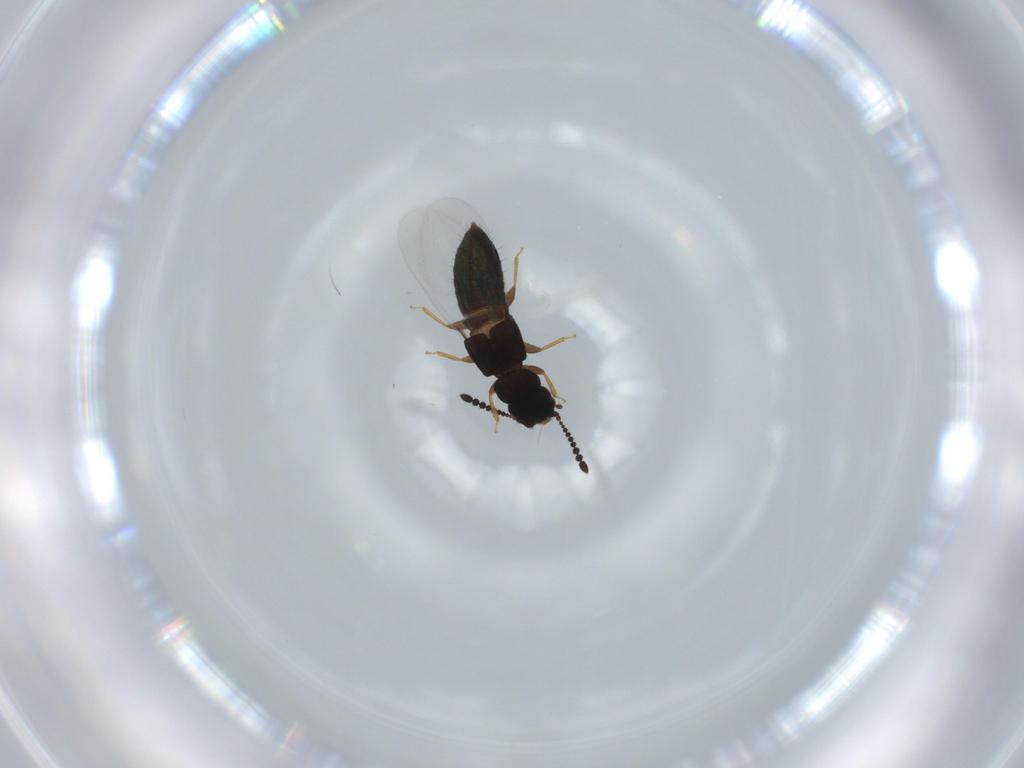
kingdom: Animalia
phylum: Arthropoda
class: Insecta
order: Coleoptera
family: Staphylinidae
